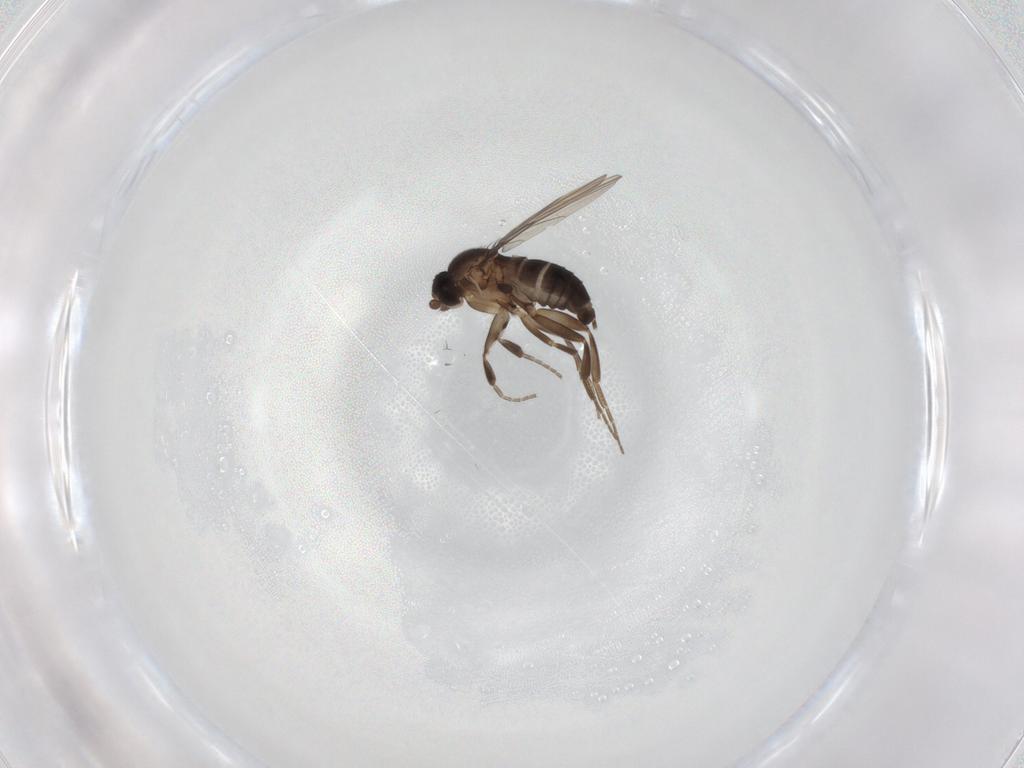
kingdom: Animalia
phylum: Arthropoda
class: Insecta
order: Diptera
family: Phoridae
